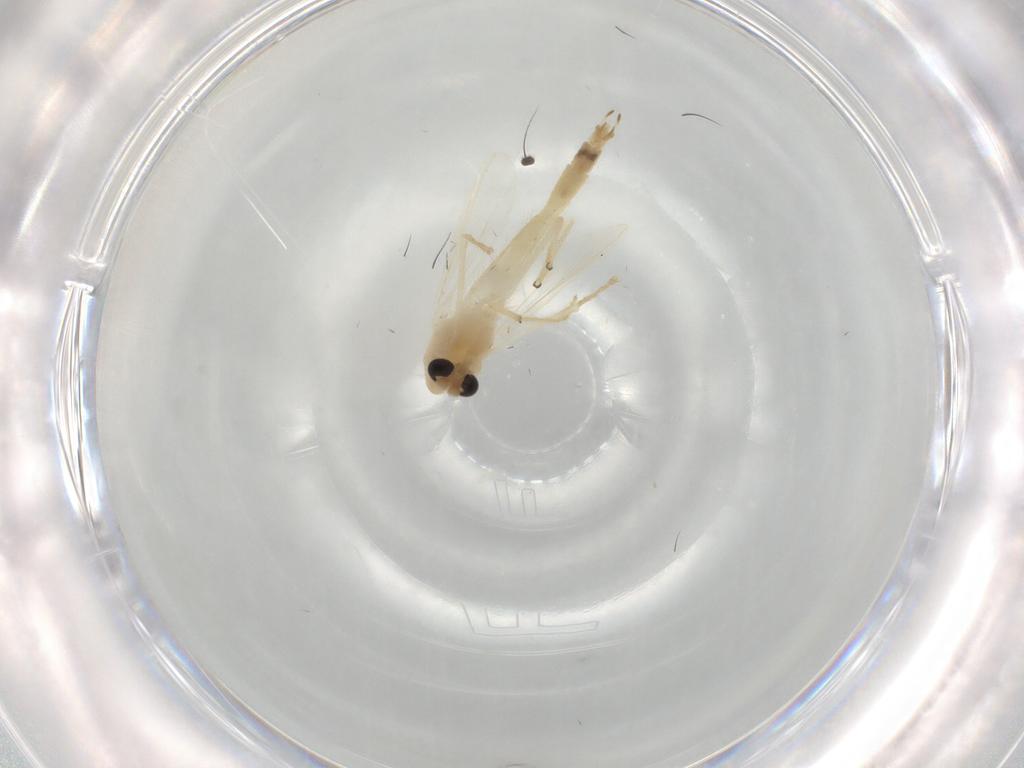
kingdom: Animalia
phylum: Arthropoda
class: Insecta
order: Diptera
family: Chironomidae
